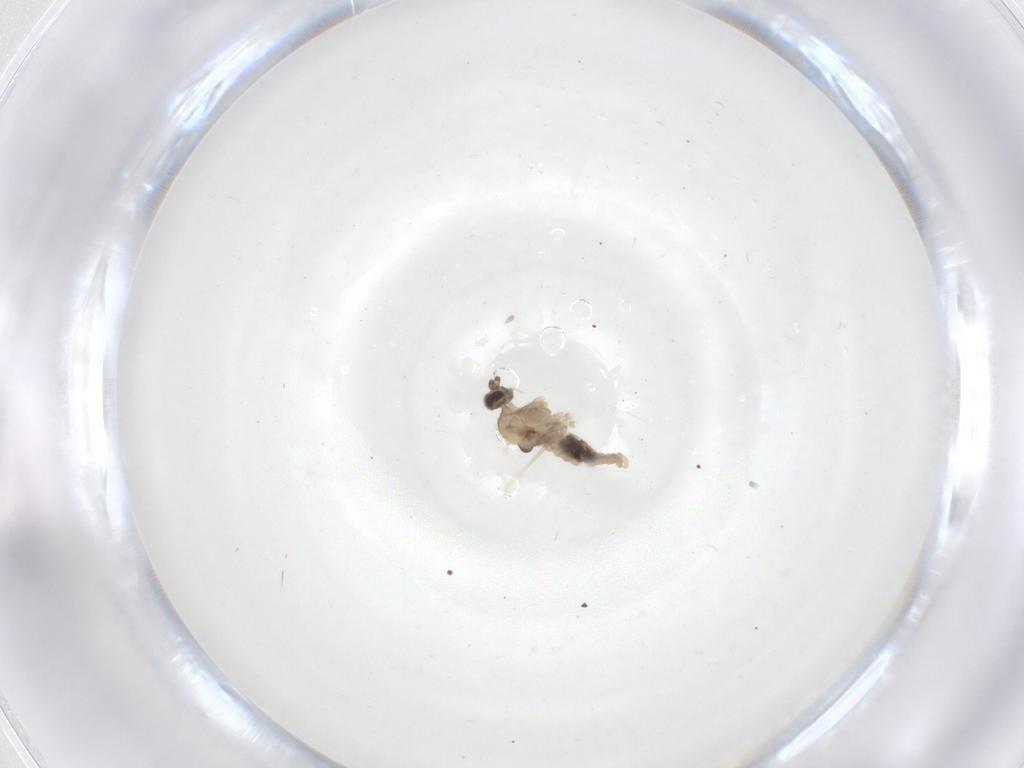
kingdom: Animalia
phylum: Arthropoda
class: Insecta
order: Diptera
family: Cecidomyiidae
